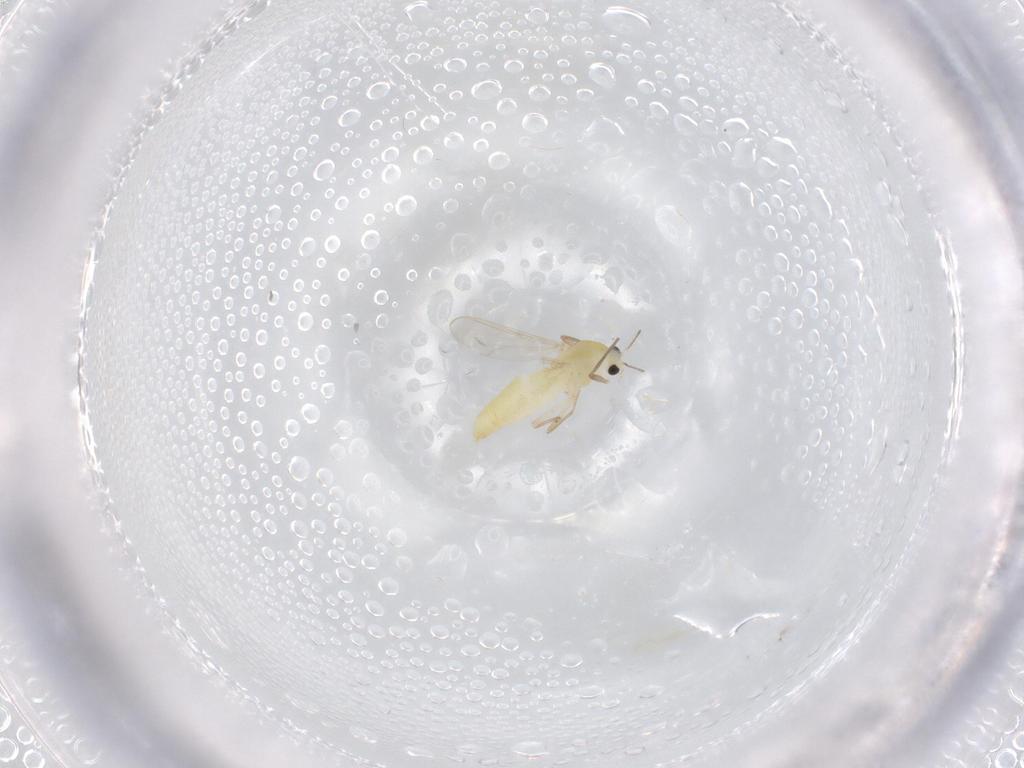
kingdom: Animalia
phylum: Arthropoda
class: Insecta
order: Diptera
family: Chironomidae
